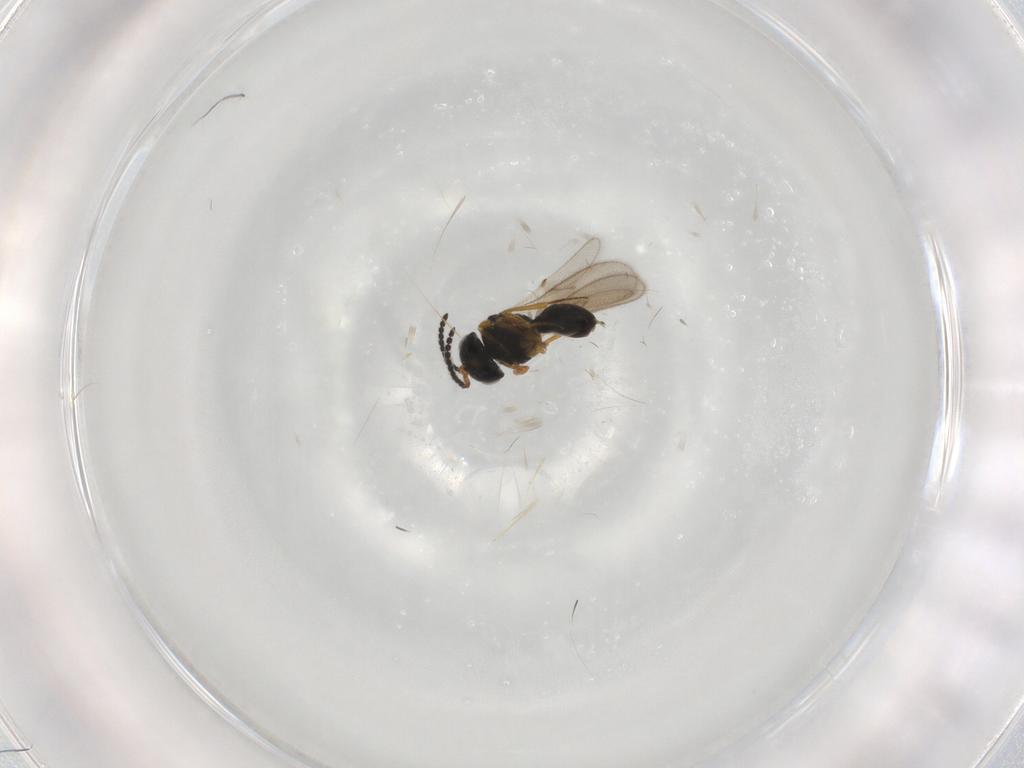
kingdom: Animalia
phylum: Arthropoda
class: Insecta
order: Hymenoptera
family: Scelionidae
